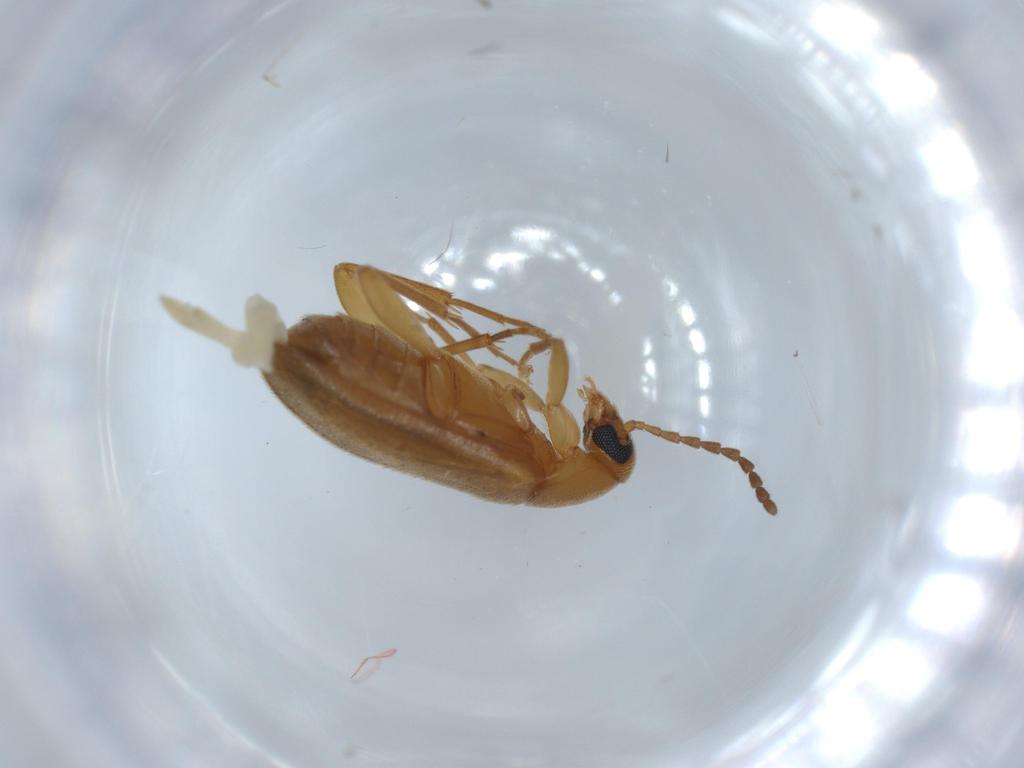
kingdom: Animalia
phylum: Arthropoda
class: Insecta
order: Coleoptera
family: Scraptiidae
